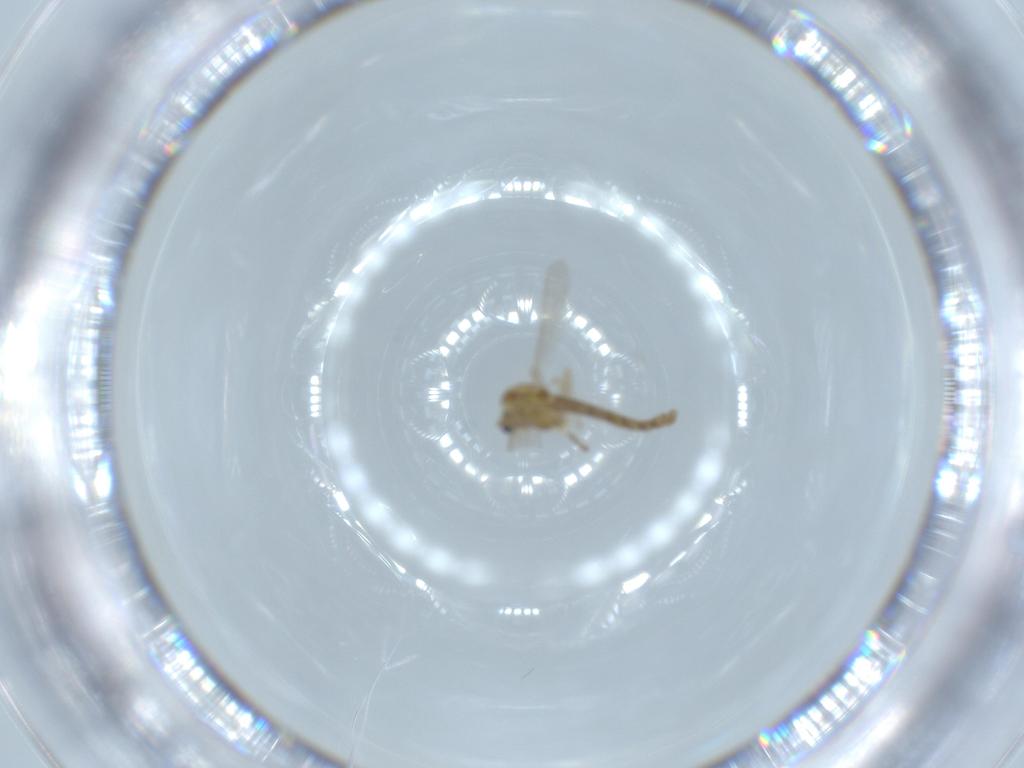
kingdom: Animalia
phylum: Arthropoda
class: Insecta
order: Diptera
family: Chironomidae
